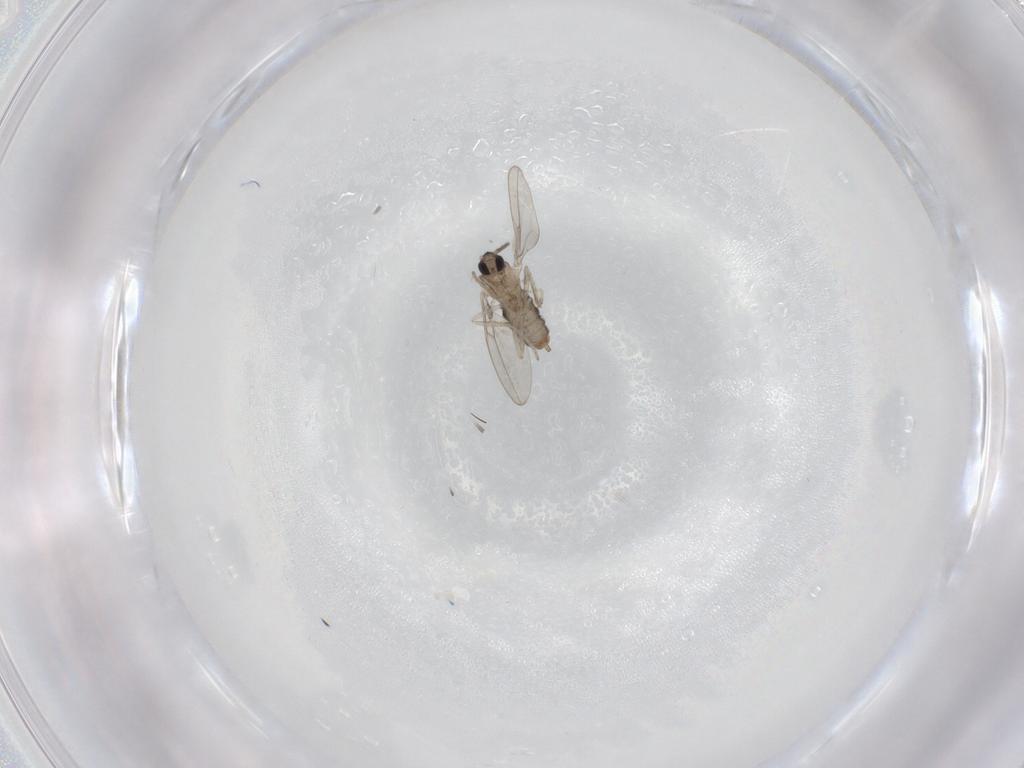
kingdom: Animalia
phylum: Arthropoda
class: Insecta
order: Diptera
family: Cecidomyiidae
